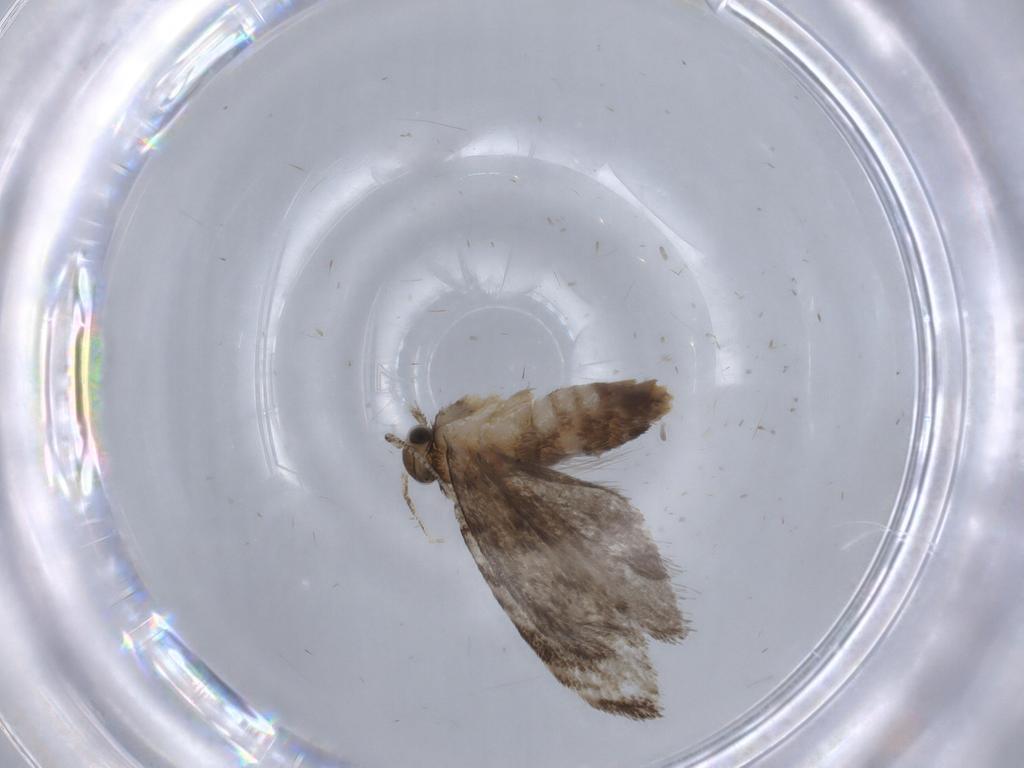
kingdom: Animalia
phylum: Arthropoda
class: Insecta
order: Lepidoptera
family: Tineidae
